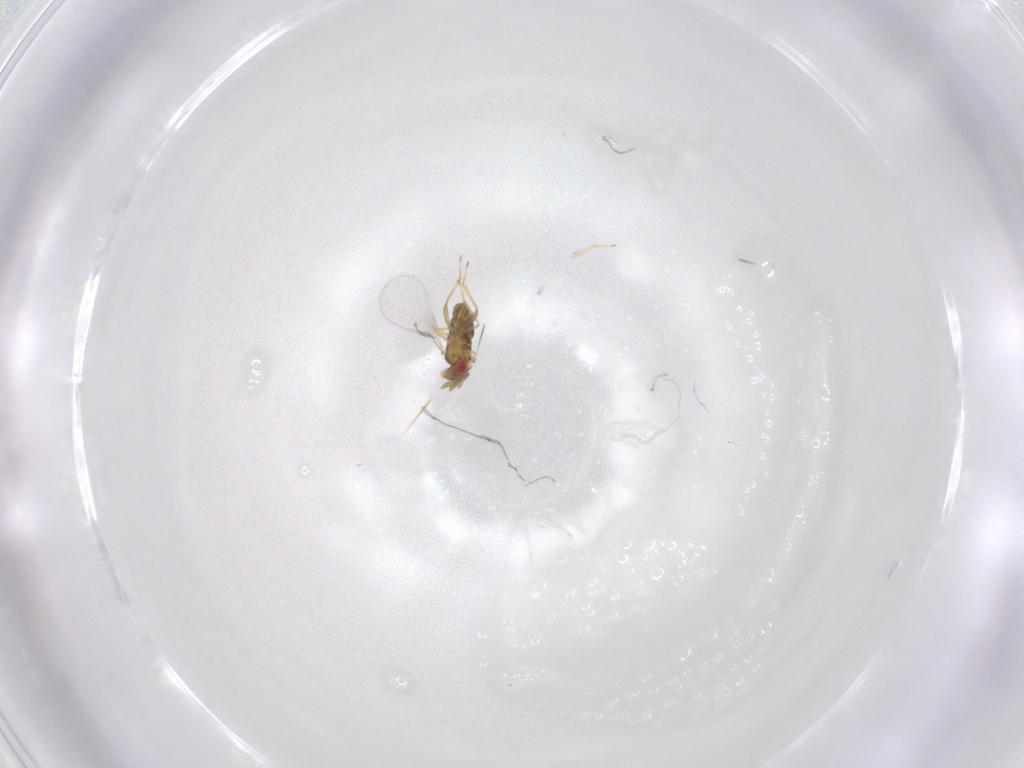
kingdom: Animalia
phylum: Arthropoda
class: Insecta
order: Hymenoptera
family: Trichogrammatidae
